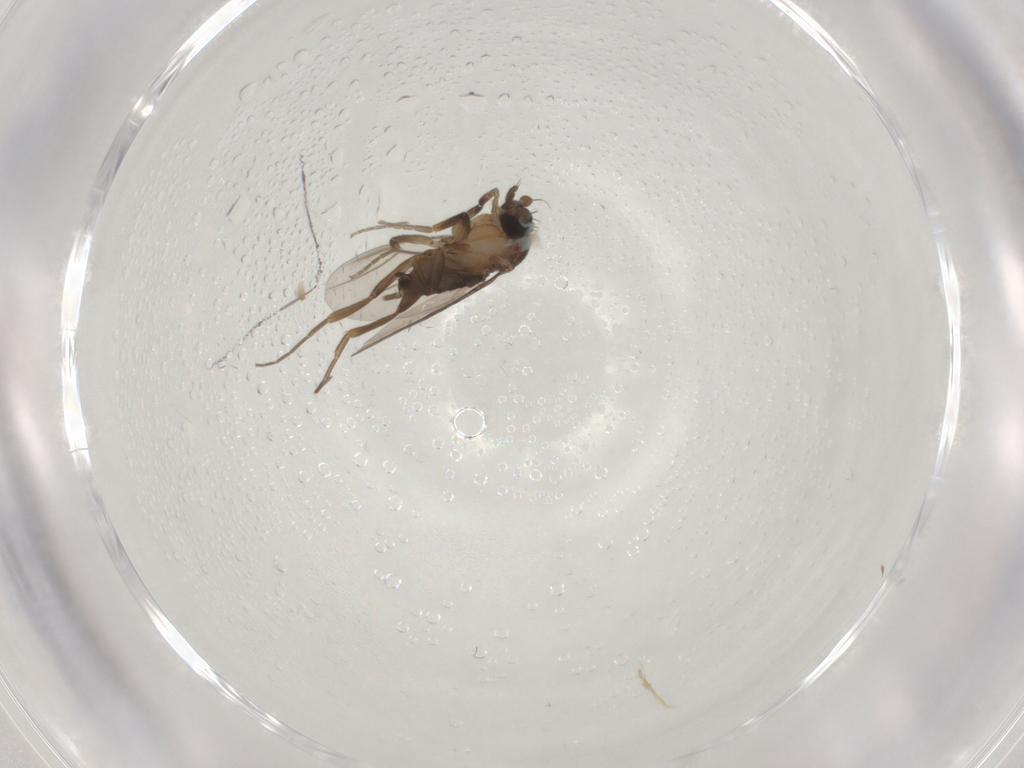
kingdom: Animalia
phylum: Arthropoda
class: Insecta
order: Diptera
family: Phoridae
